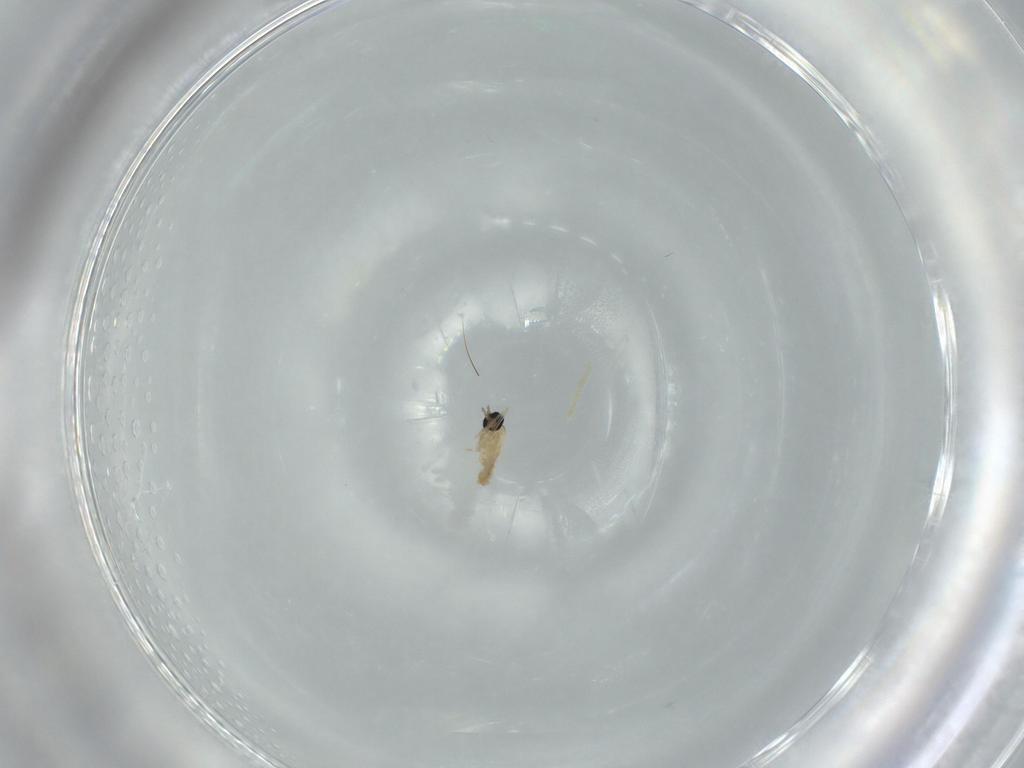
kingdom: Animalia
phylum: Arthropoda
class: Insecta
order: Diptera
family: Cecidomyiidae
